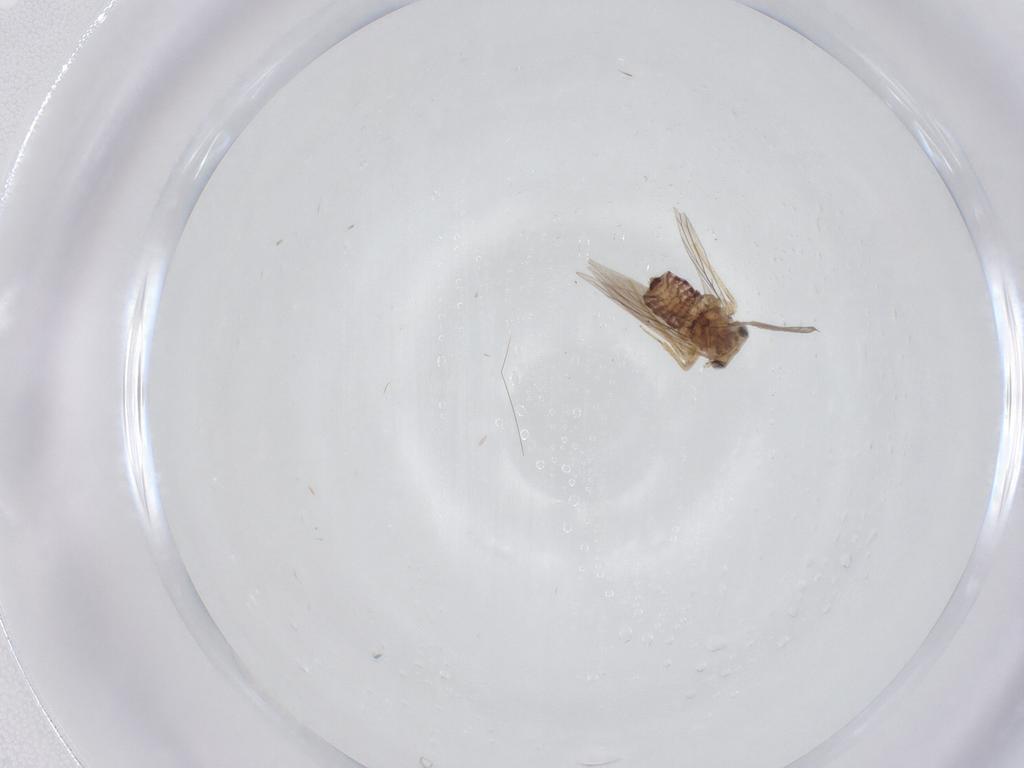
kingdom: Animalia
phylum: Arthropoda
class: Insecta
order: Psocodea
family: Lepidopsocidae
